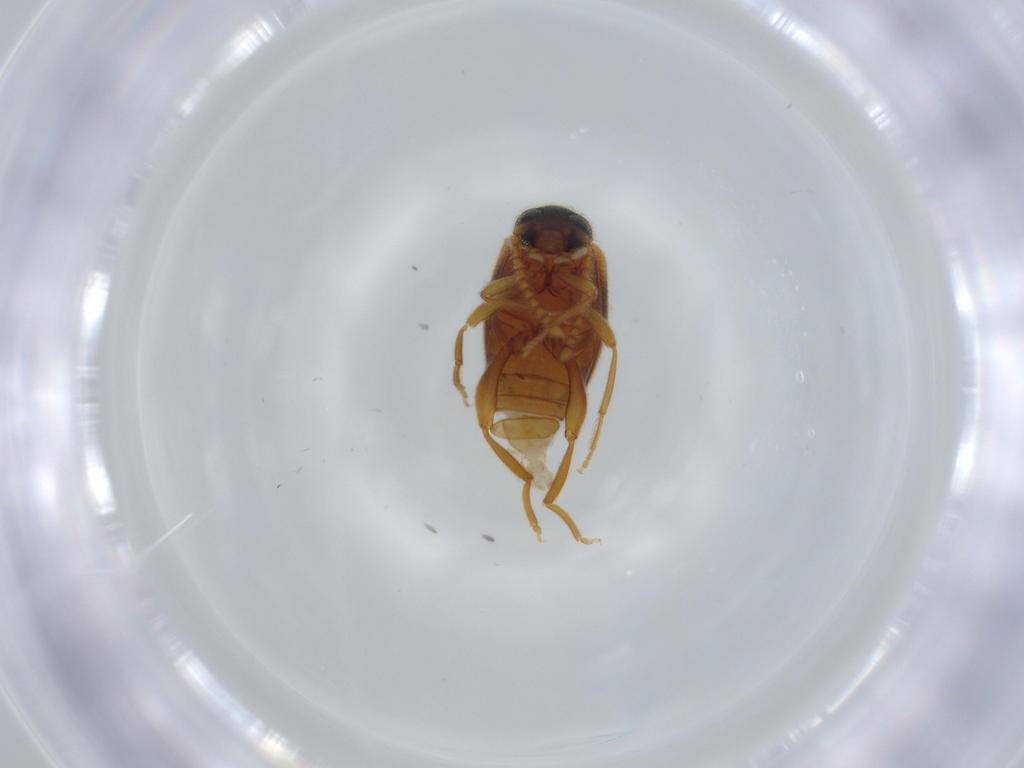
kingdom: Animalia
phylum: Arthropoda
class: Insecta
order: Coleoptera
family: Aderidae
